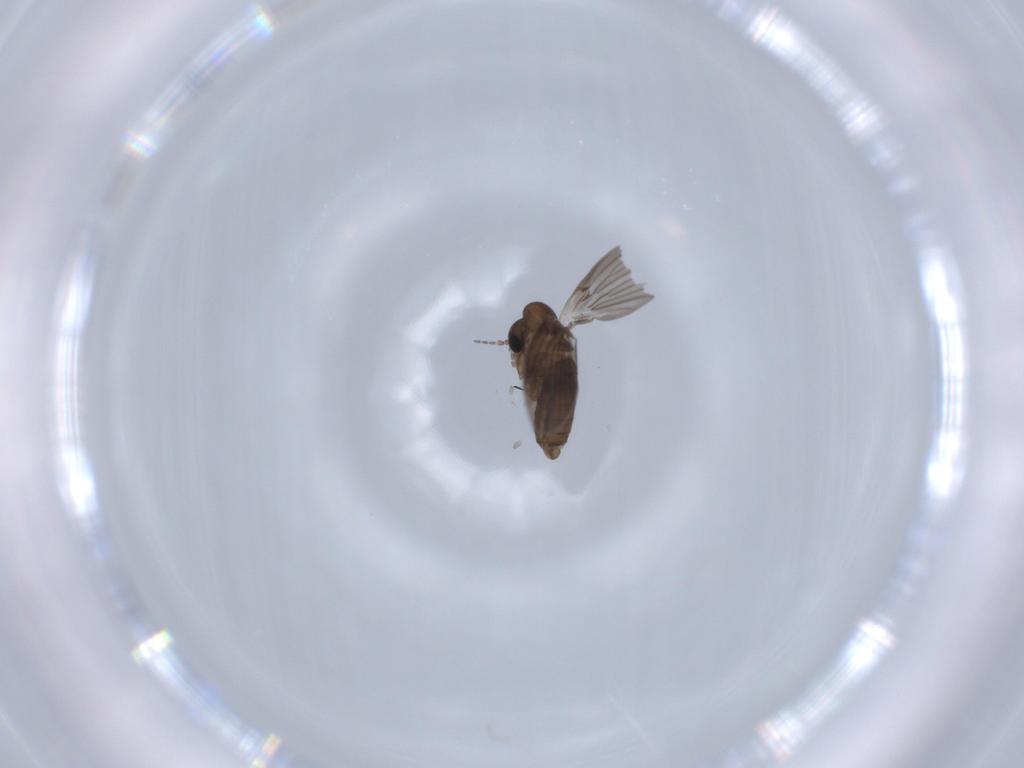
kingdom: Animalia
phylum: Arthropoda
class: Insecta
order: Diptera
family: Psychodidae
